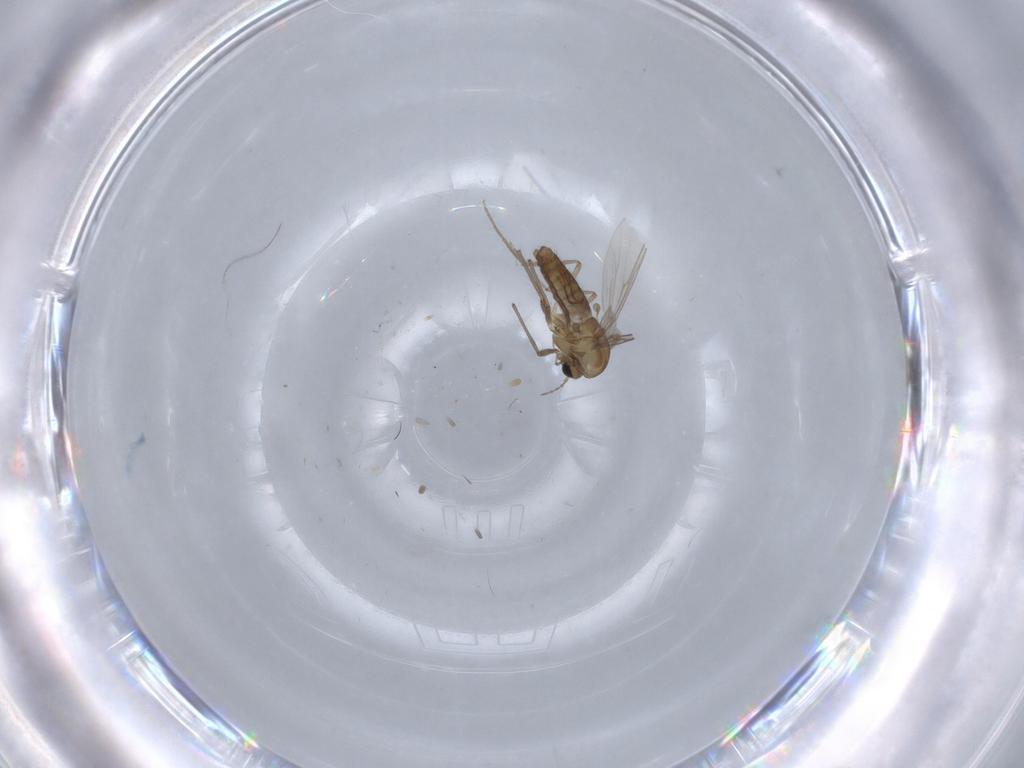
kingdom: Animalia
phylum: Arthropoda
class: Insecta
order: Diptera
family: Chironomidae
